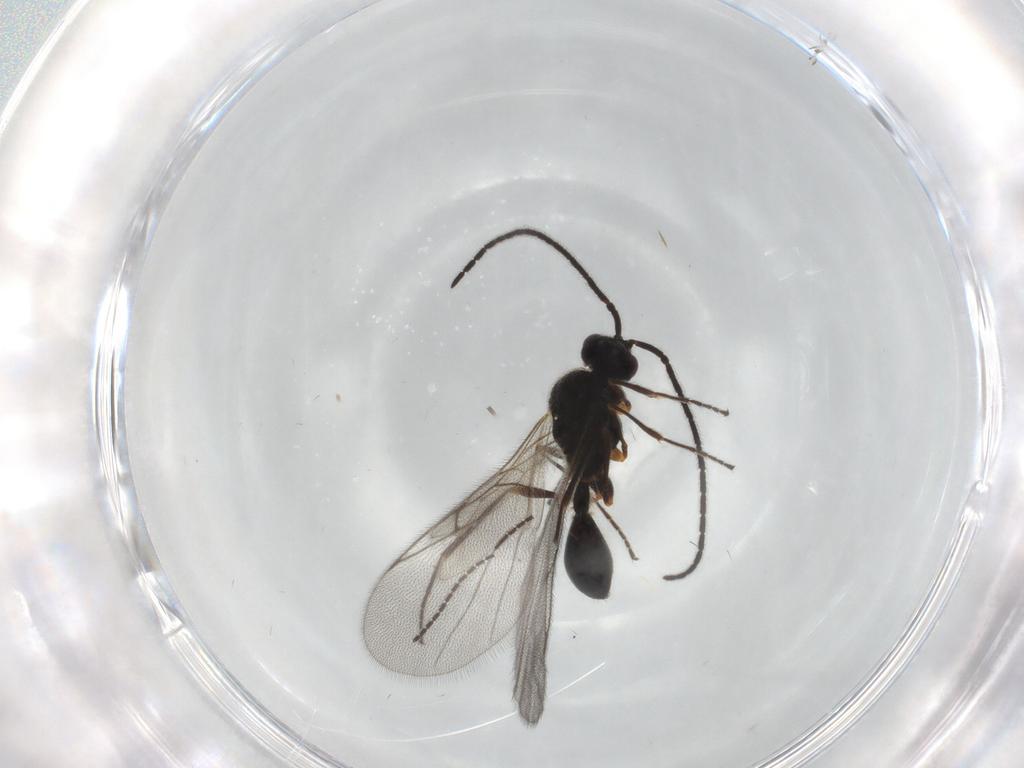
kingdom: Animalia
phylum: Arthropoda
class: Insecta
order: Hymenoptera
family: Diapriidae
